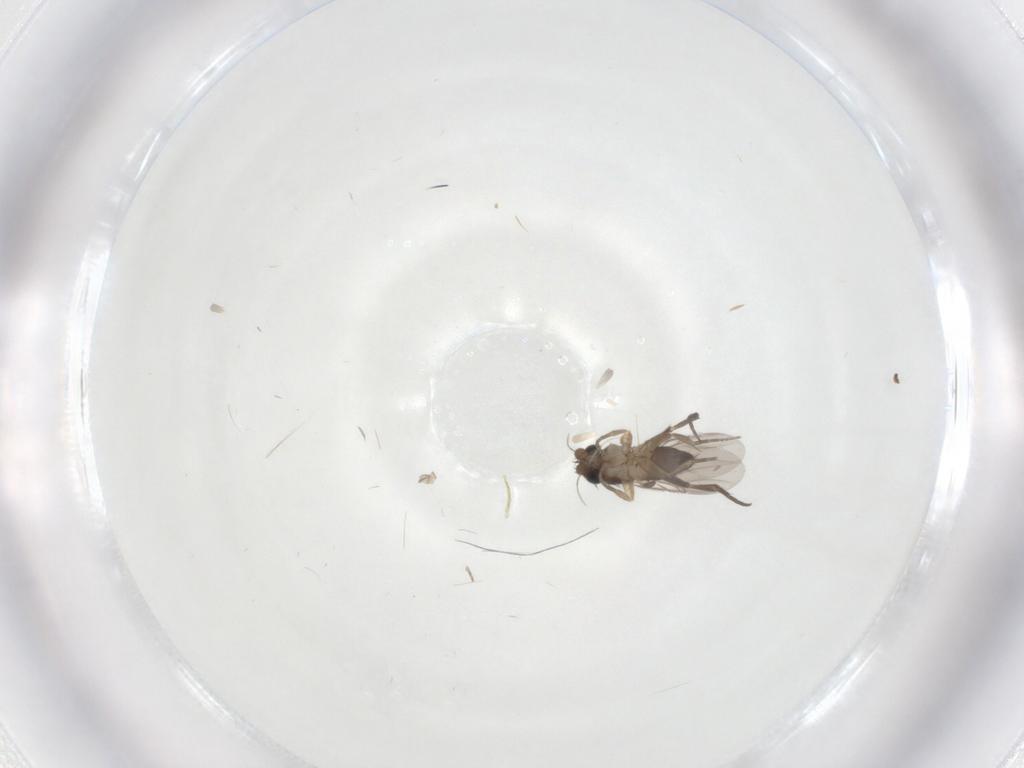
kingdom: Animalia
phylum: Arthropoda
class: Insecta
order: Diptera
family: Phoridae
